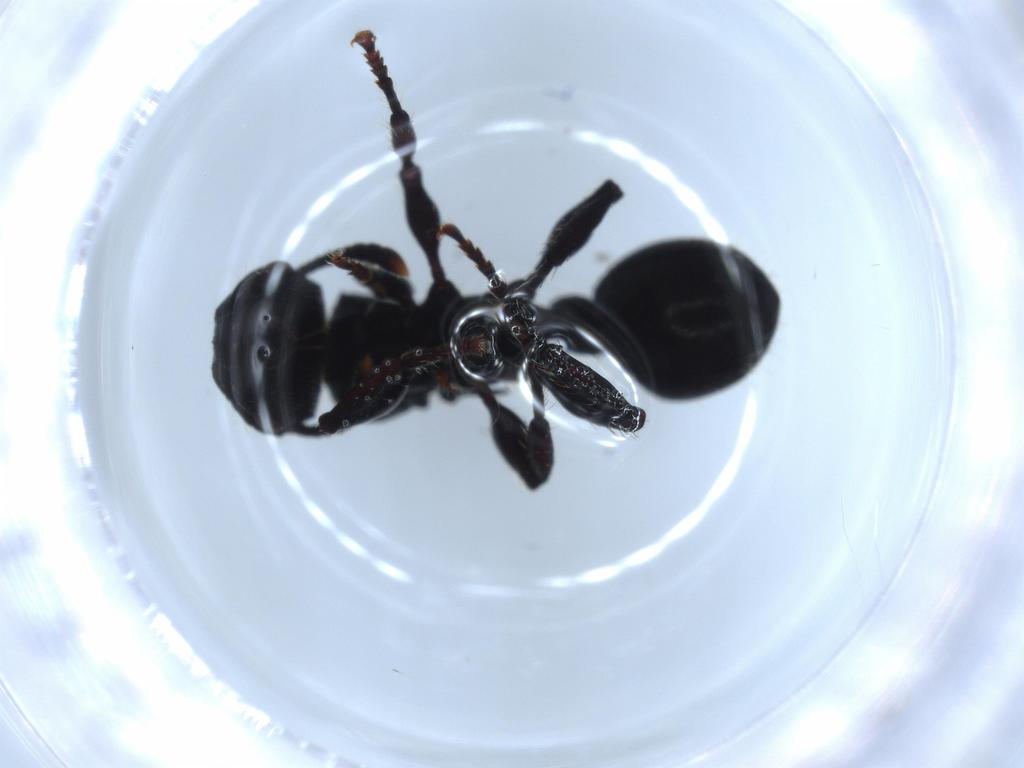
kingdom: Animalia
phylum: Arthropoda
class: Insecta
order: Hymenoptera
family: Formicidae
